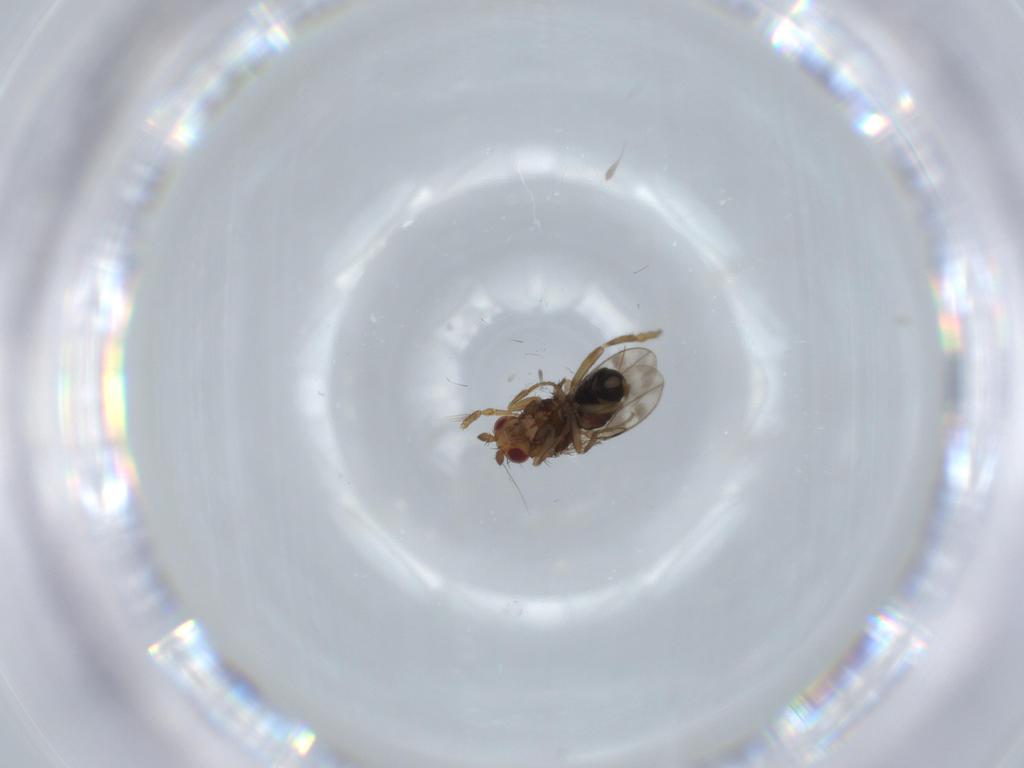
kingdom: Animalia
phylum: Arthropoda
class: Insecta
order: Diptera
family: Sphaeroceridae
